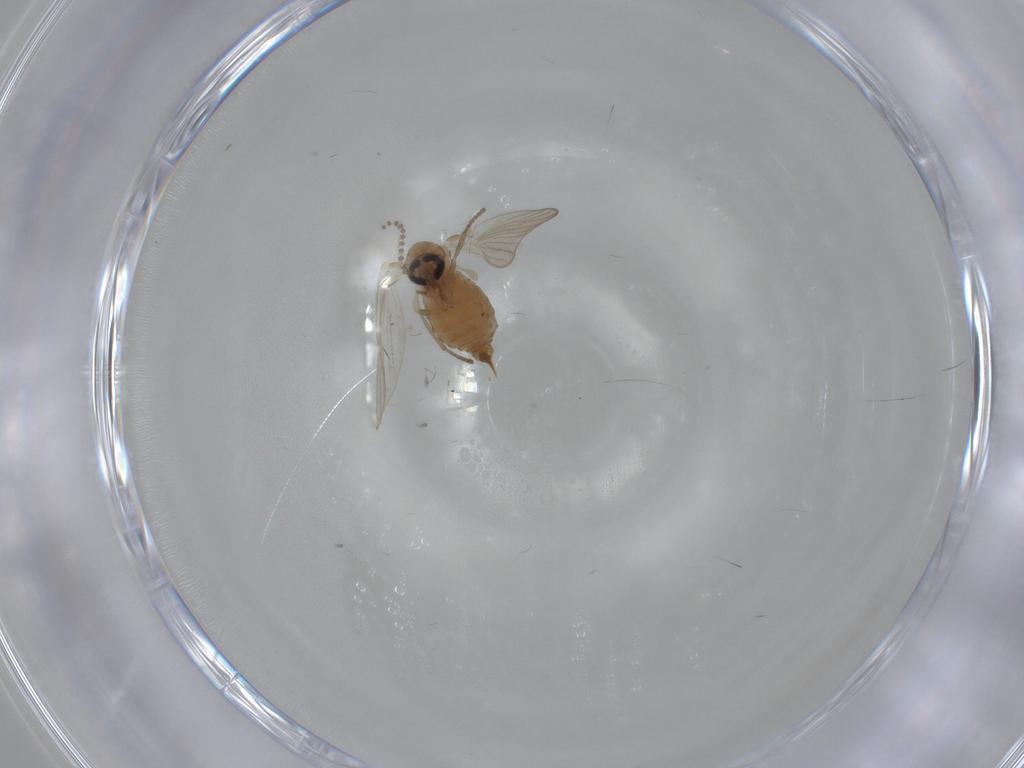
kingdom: Animalia
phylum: Arthropoda
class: Insecta
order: Diptera
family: Psychodidae
